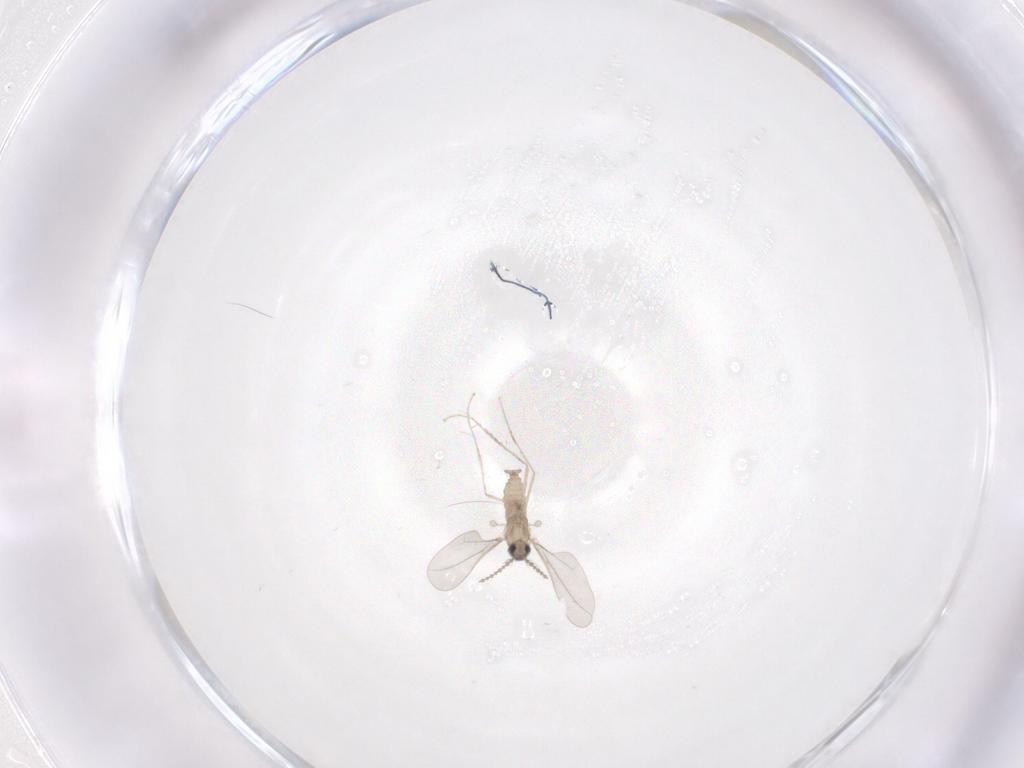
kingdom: Animalia
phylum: Arthropoda
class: Insecta
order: Diptera
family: Cecidomyiidae
